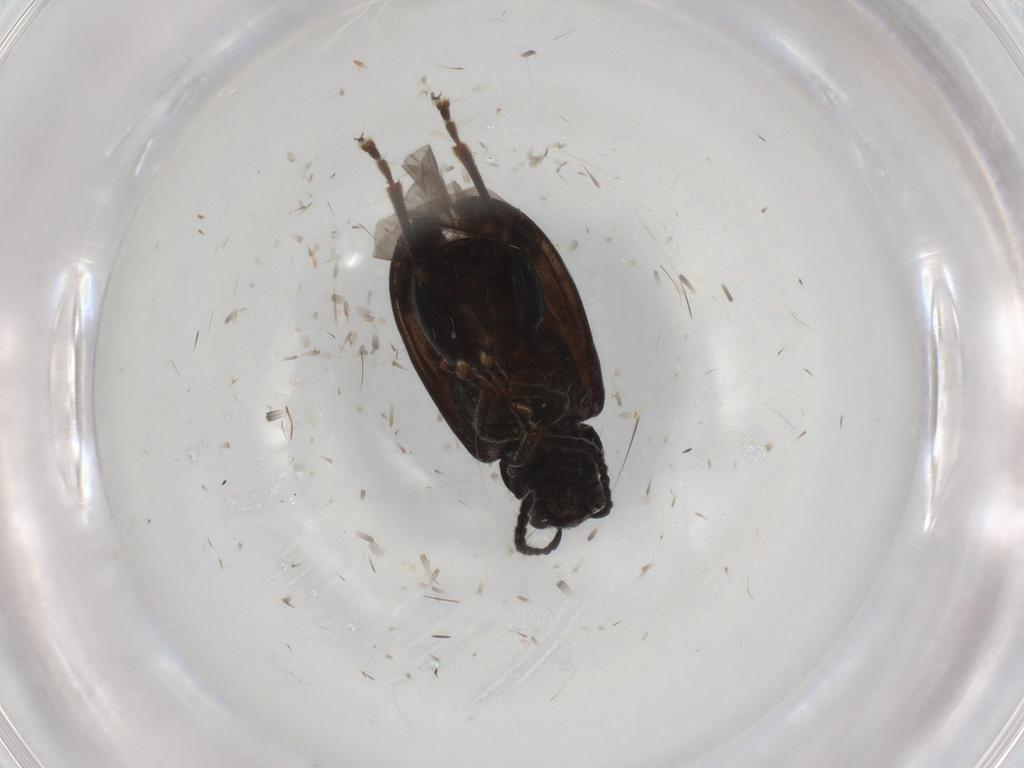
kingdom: Animalia
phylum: Arthropoda
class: Insecta
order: Coleoptera
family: Chrysomelidae
